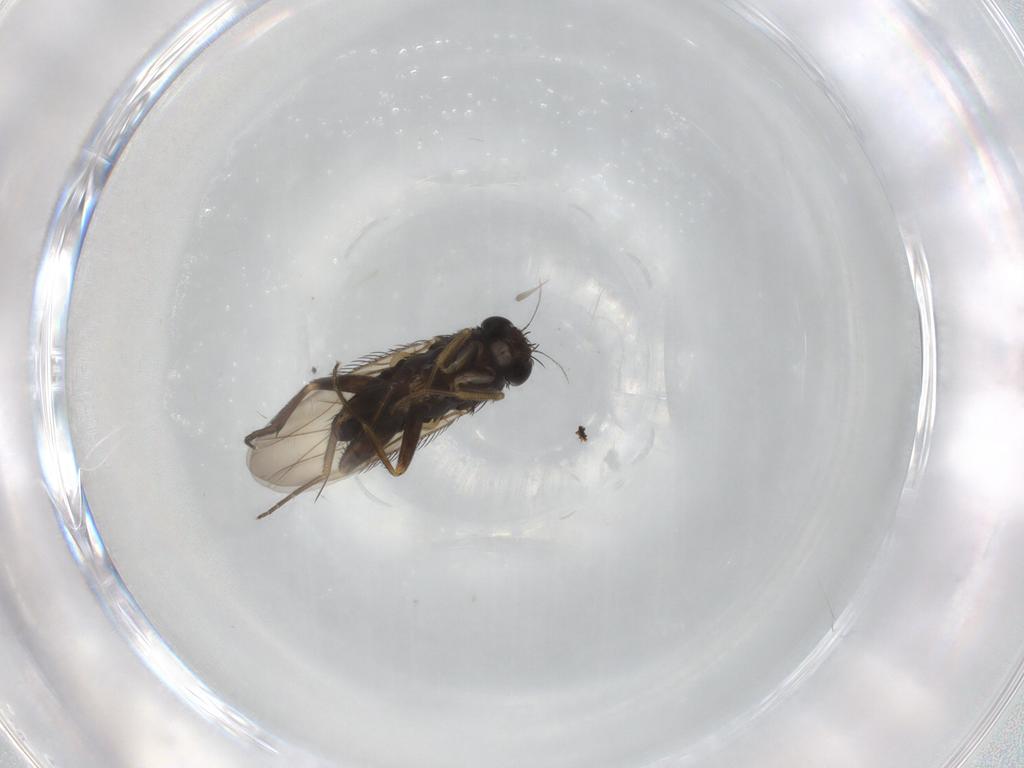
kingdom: Animalia
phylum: Arthropoda
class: Insecta
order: Diptera
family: Phoridae
